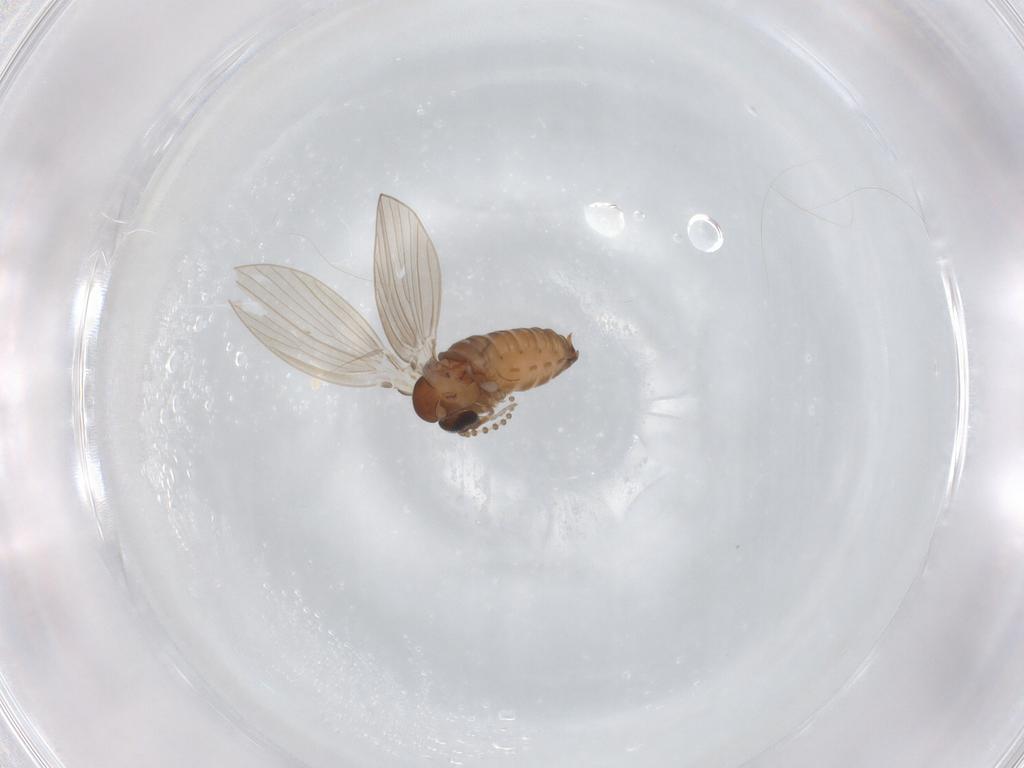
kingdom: Animalia
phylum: Arthropoda
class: Insecta
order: Diptera
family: Psychodidae
